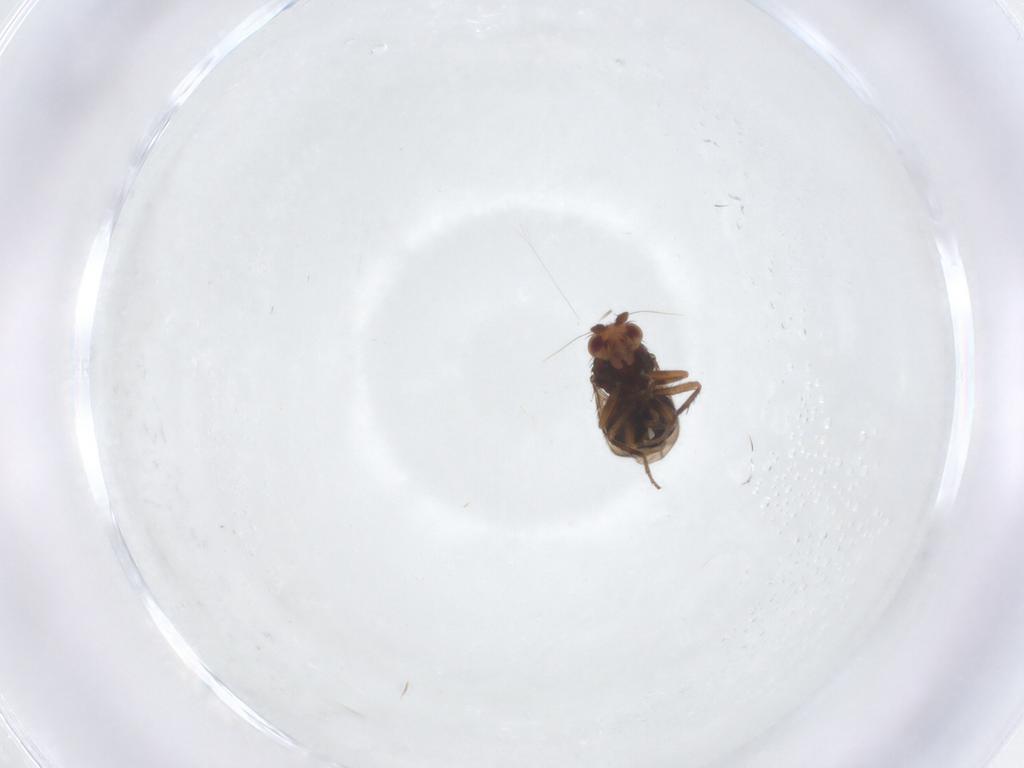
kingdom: Animalia
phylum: Arthropoda
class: Insecta
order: Diptera
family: Sphaeroceridae
